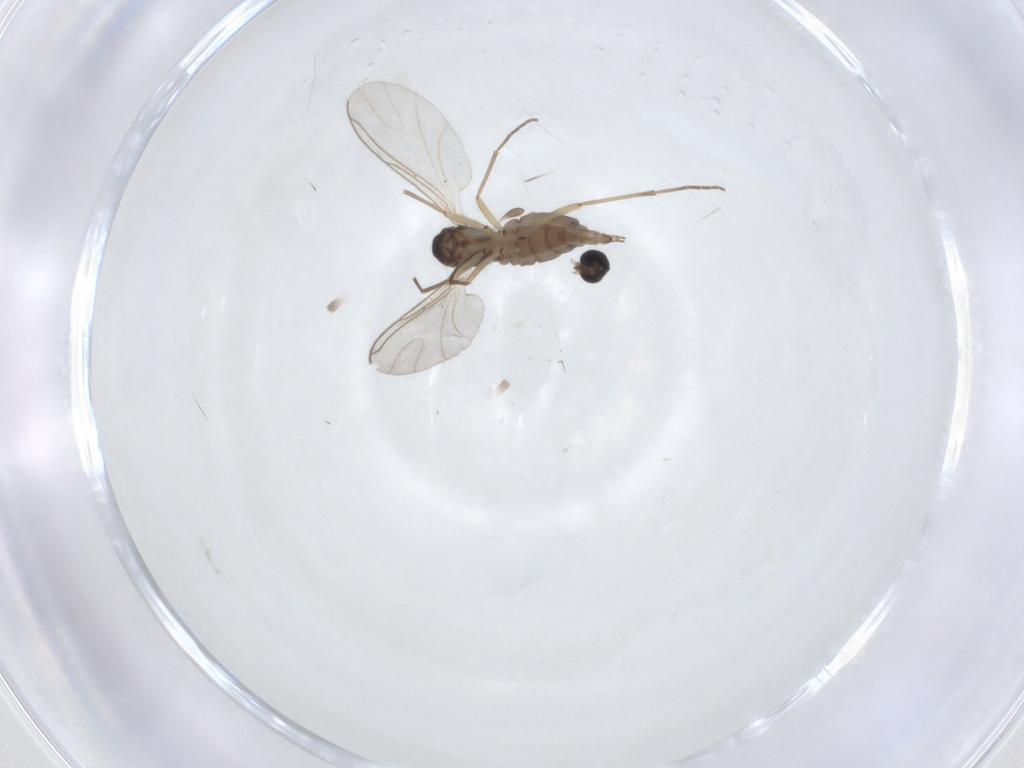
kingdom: Animalia
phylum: Arthropoda
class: Insecta
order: Diptera
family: Sciaridae
